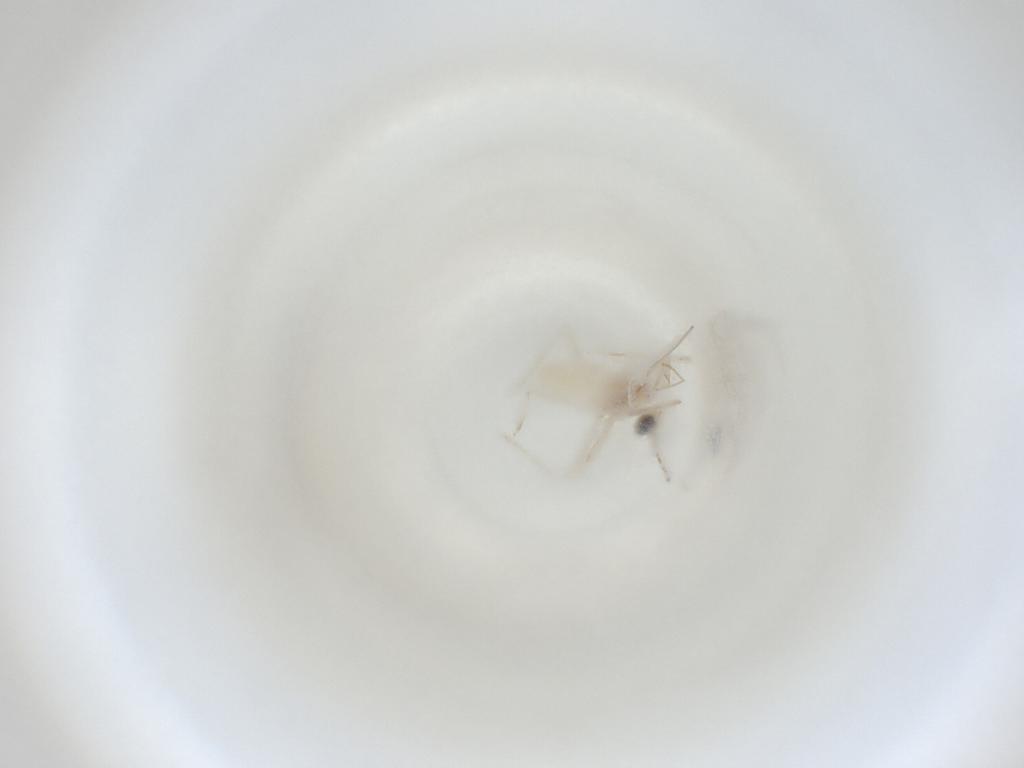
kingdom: Animalia
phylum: Arthropoda
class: Insecta
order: Diptera
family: Cecidomyiidae
